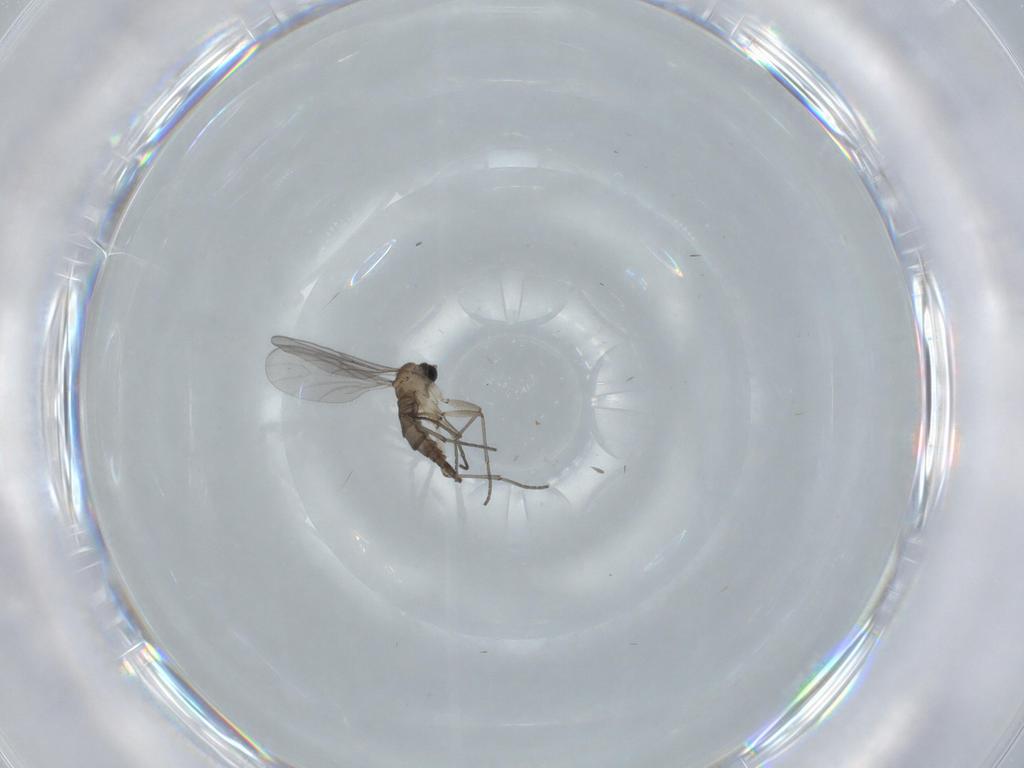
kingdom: Animalia
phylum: Arthropoda
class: Insecta
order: Diptera
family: Sciaridae
